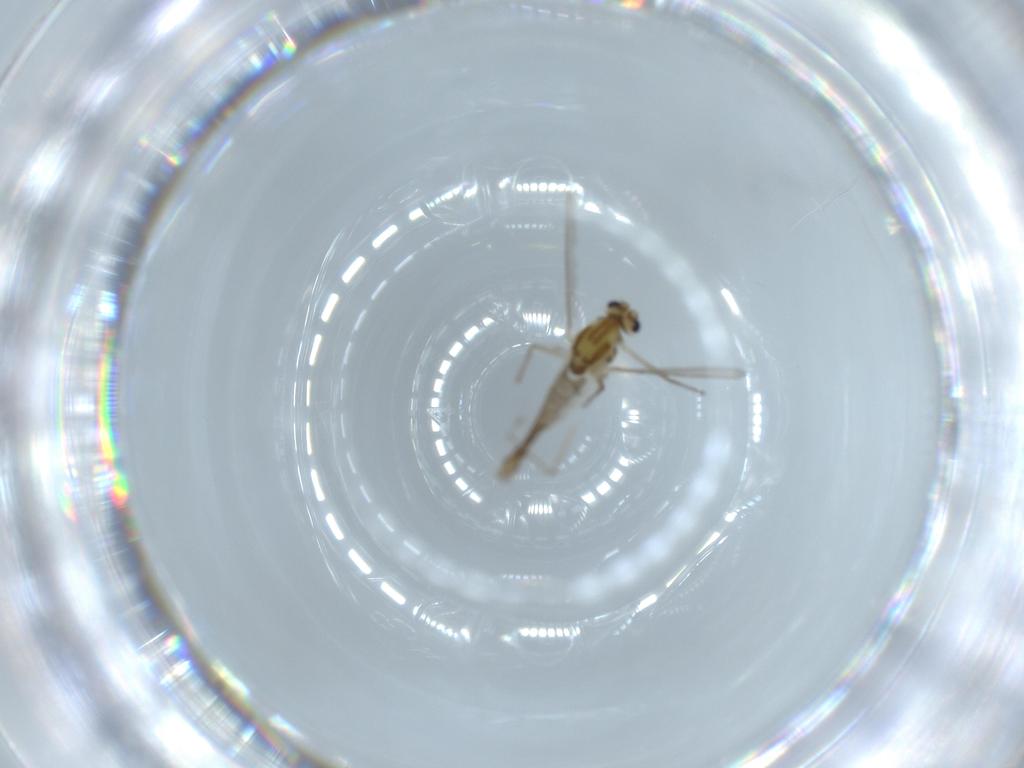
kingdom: Animalia
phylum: Arthropoda
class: Insecta
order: Diptera
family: Chironomidae
